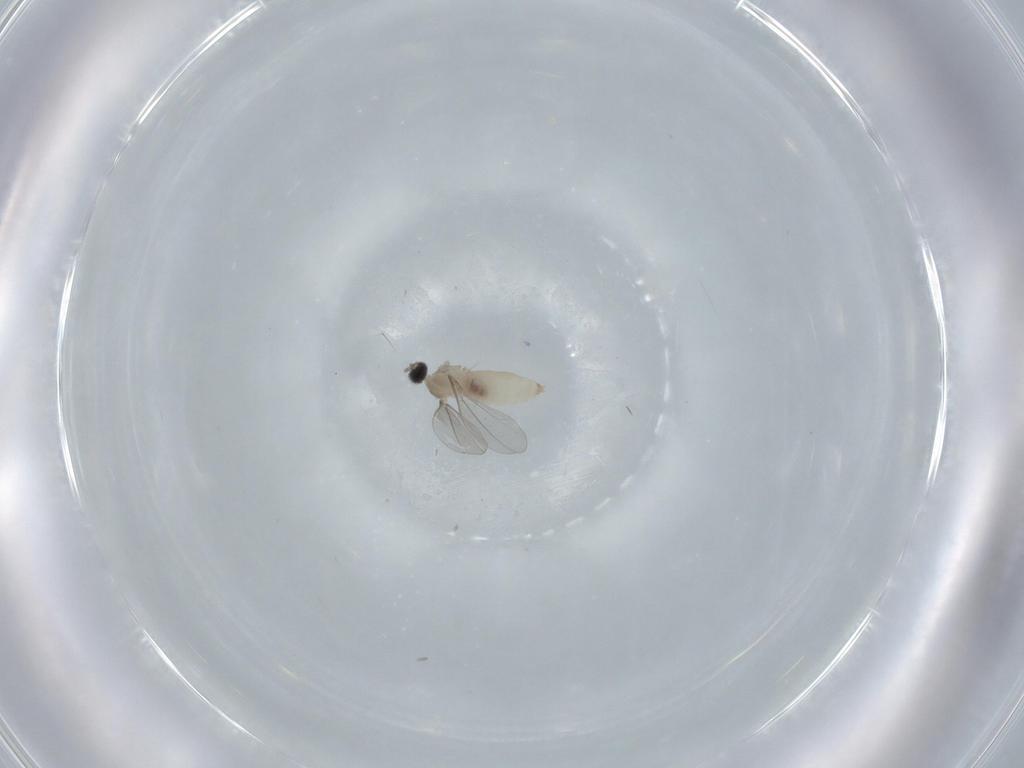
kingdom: Animalia
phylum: Arthropoda
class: Insecta
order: Diptera
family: Cecidomyiidae
